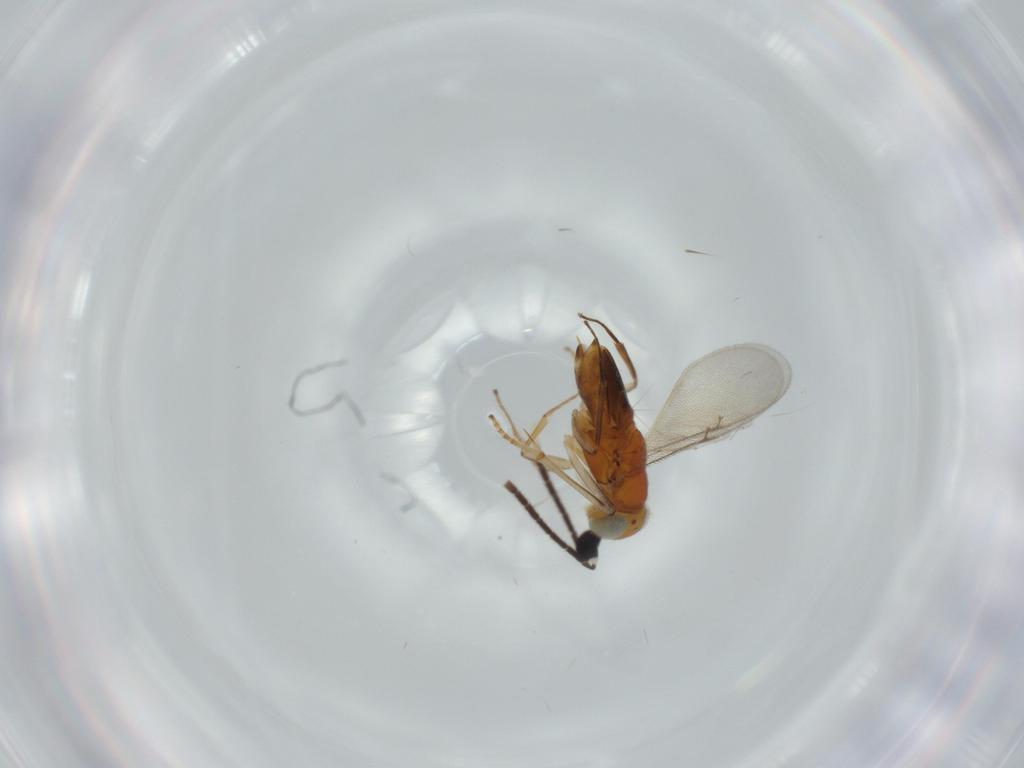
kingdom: Animalia
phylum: Arthropoda
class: Insecta
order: Hymenoptera
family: Encyrtidae
